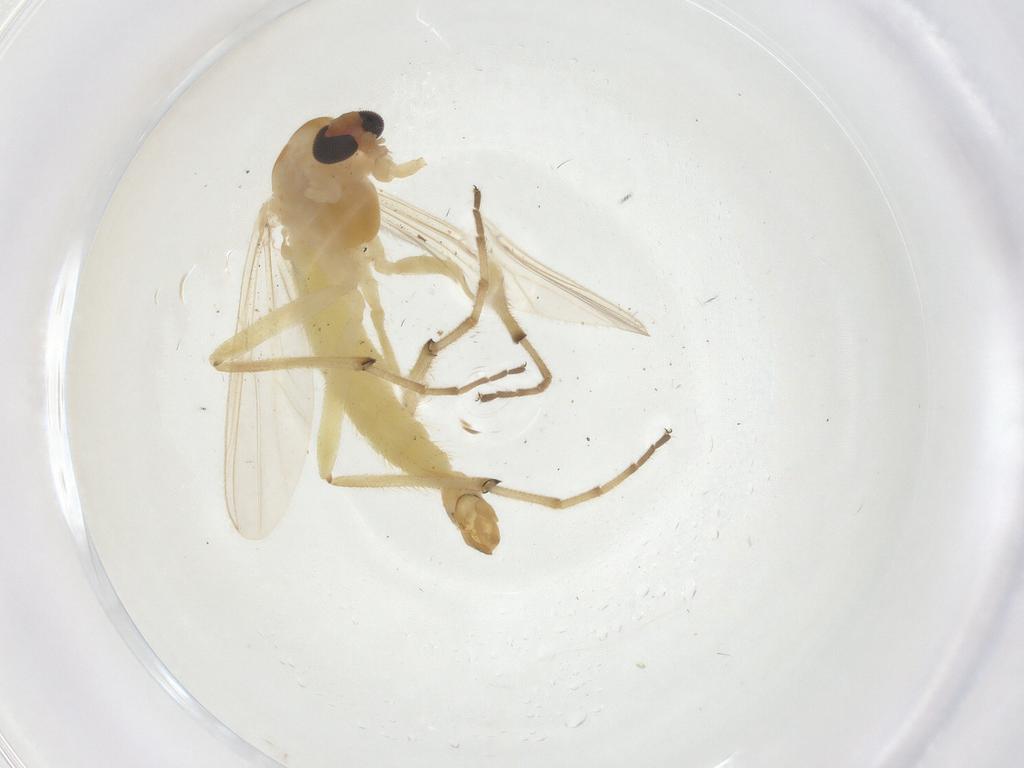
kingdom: Animalia
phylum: Arthropoda
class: Insecta
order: Diptera
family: Chironomidae
